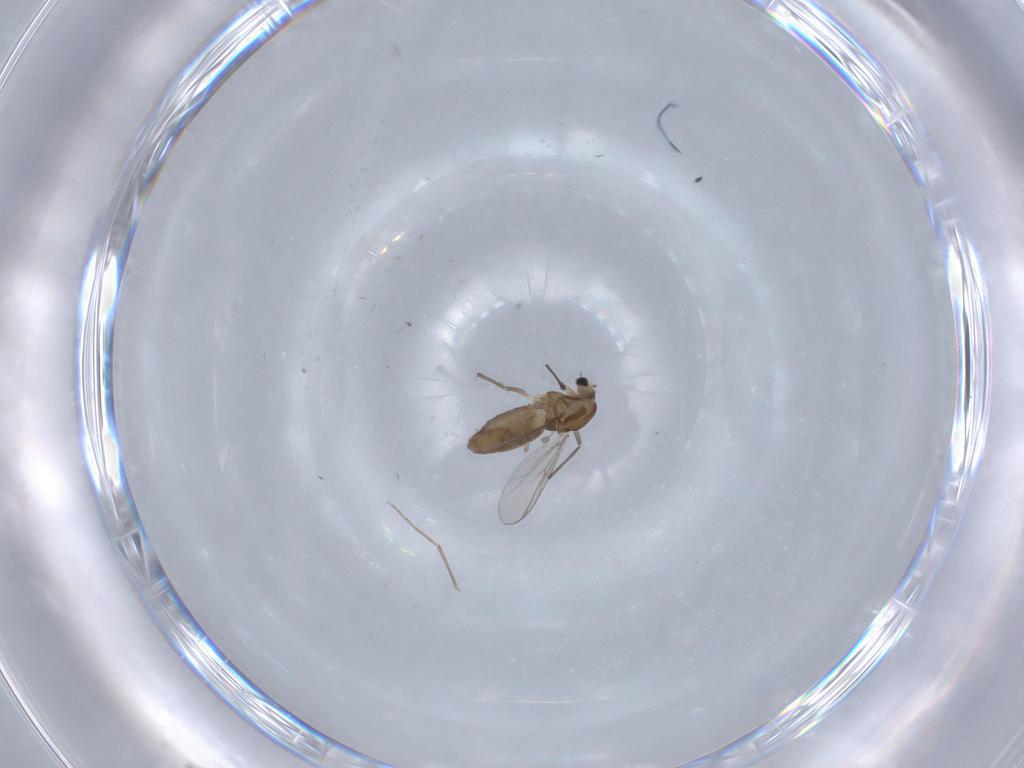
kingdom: Animalia
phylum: Arthropoda
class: Insecta
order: Diptera
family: Chironomidae
